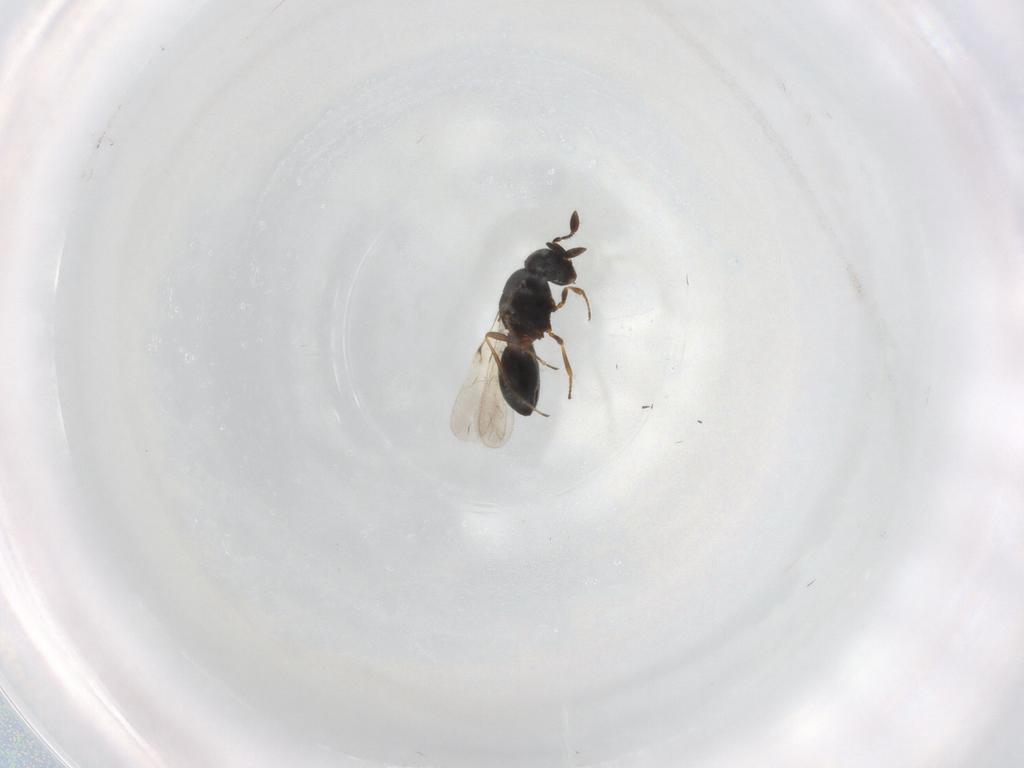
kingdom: Animalia
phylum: Arthropoda
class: Insecta
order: Hymenoptera
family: Scelionidae
